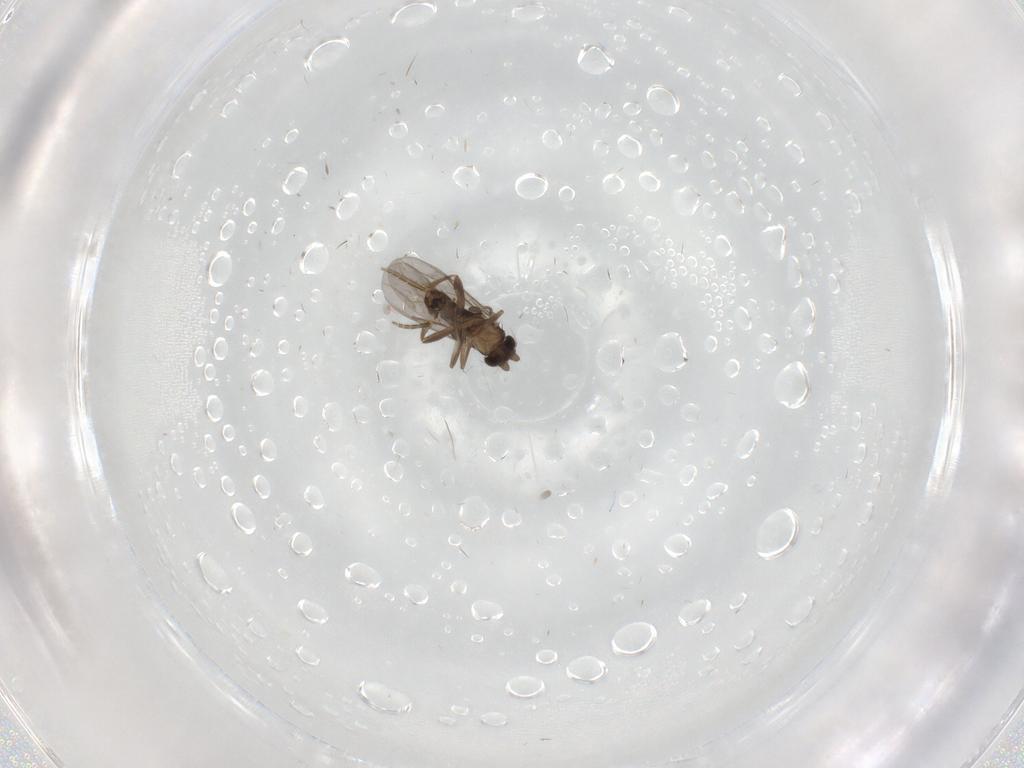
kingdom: Animalia
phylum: Arthropoda
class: Insecta
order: Diptera
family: Phoridae
